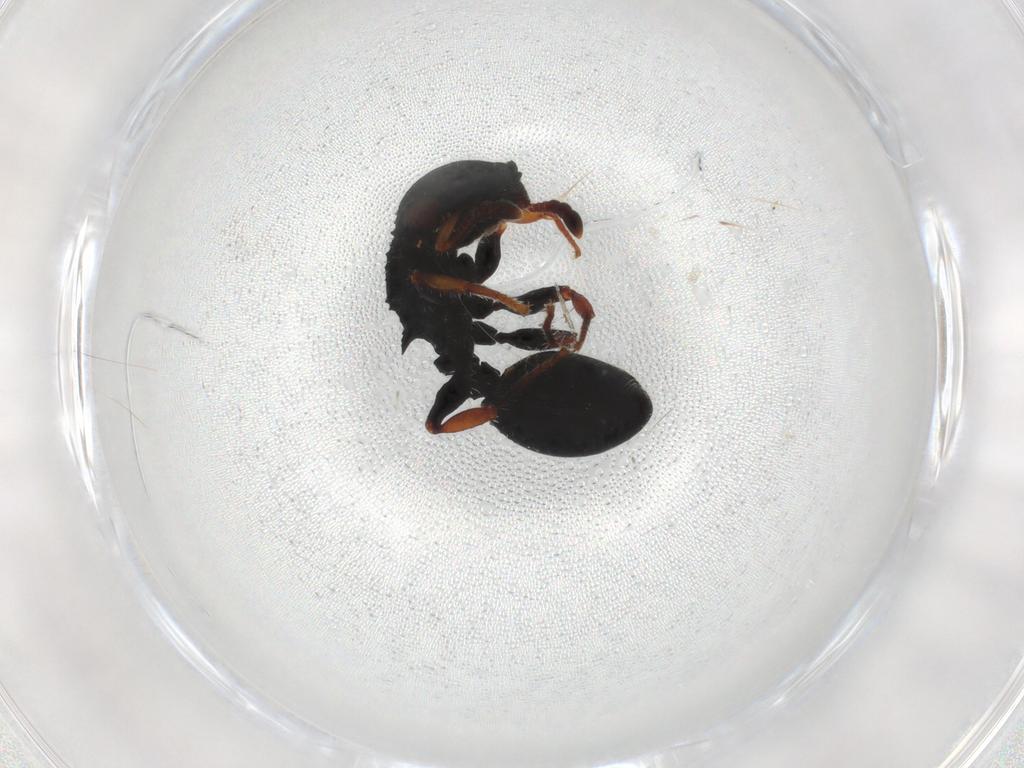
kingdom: Animalia
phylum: Arthropoda
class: Insecta
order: Hymenoptera
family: Formicidae
